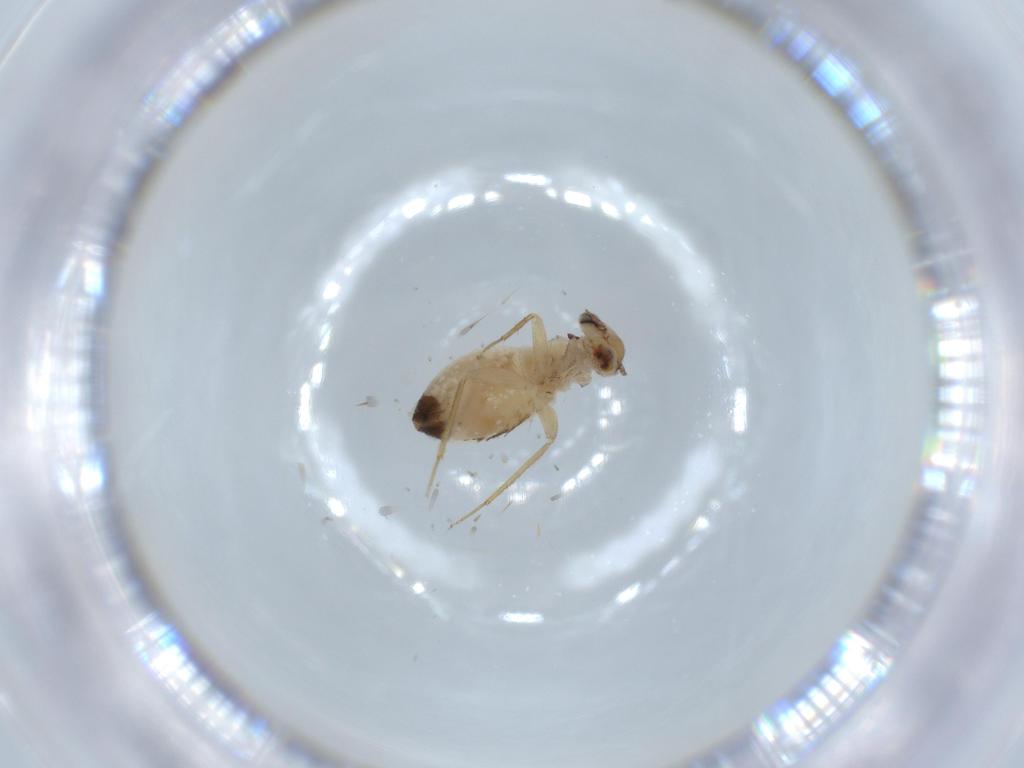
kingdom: Animalia
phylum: Arthropoda
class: Insecta
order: Psocodea
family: Lepidopsocidae
